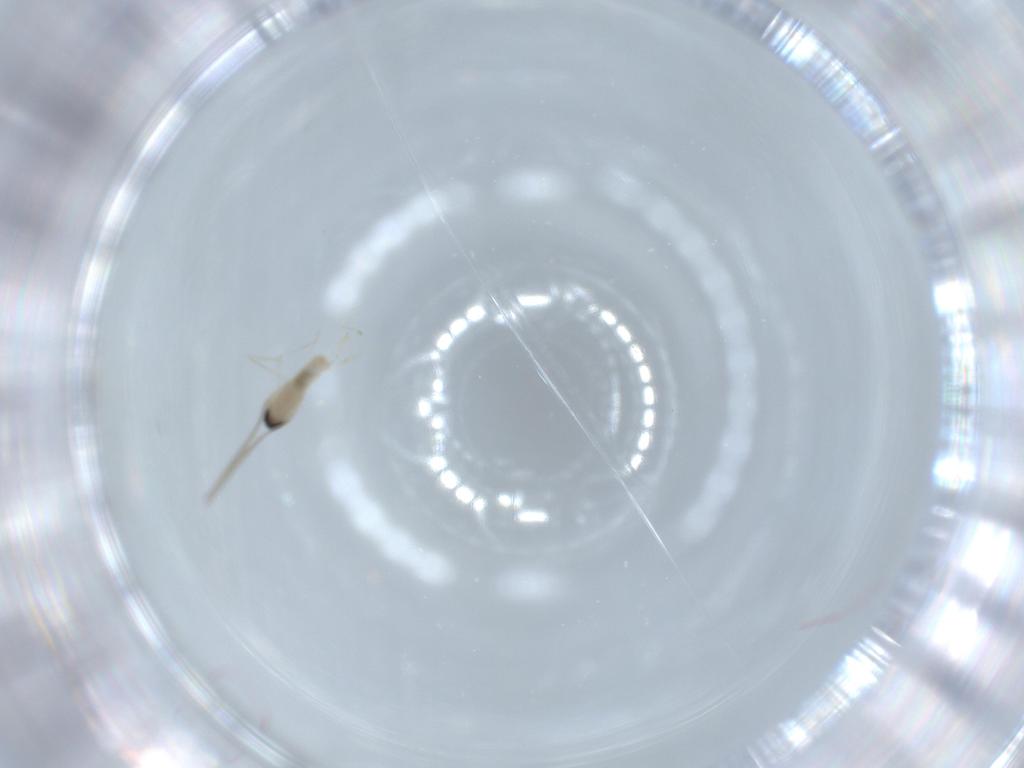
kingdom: Animalia
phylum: Arthropoda
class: Insecta
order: Diptera
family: Cecidomyiidae
